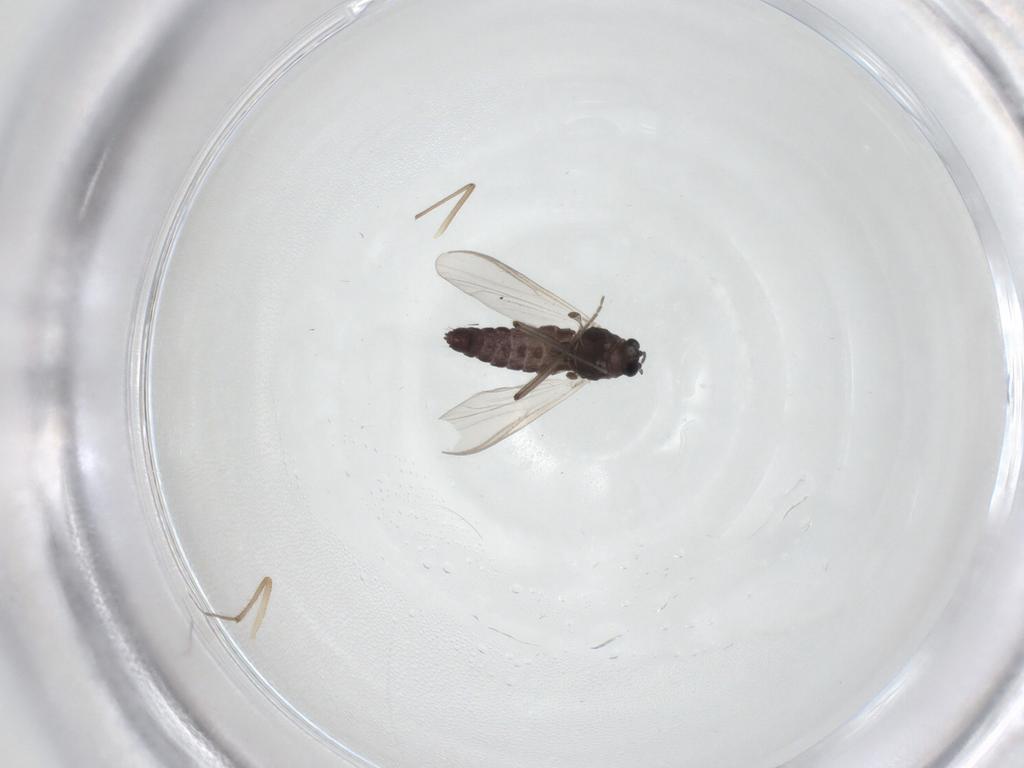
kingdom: Animalia
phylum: Arthropoda
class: Insecta
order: Diptera
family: Chironomidae
